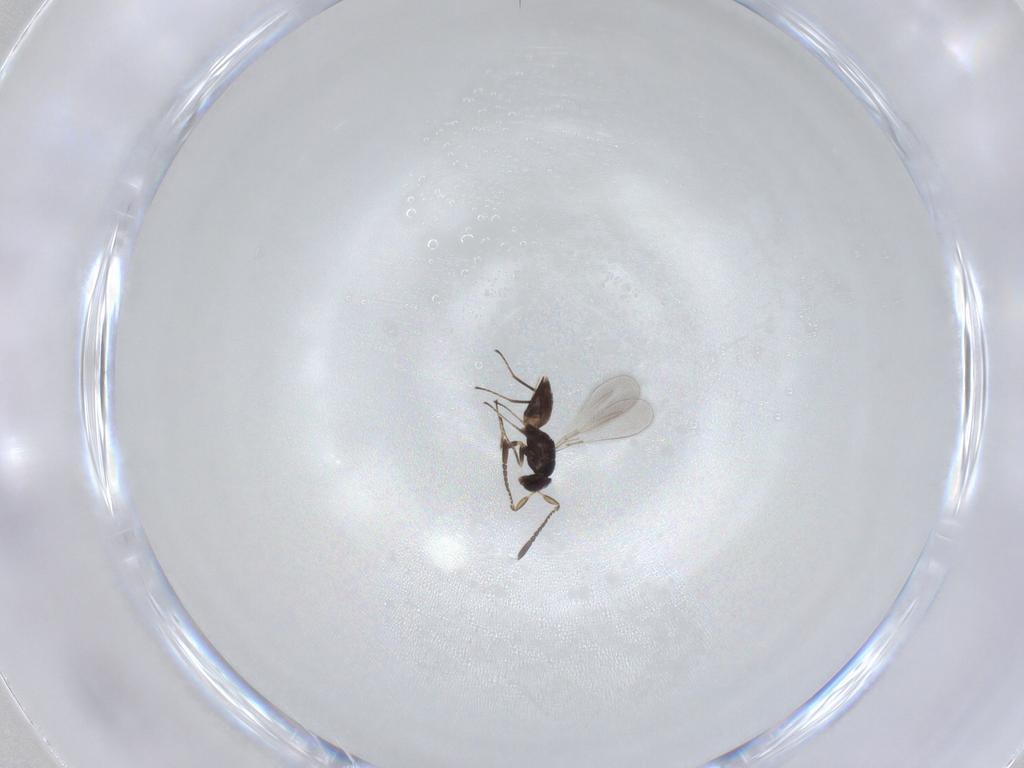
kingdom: Animalia
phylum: Arthropoda
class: Insecta
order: Hymenoptera
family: Mymaridae
